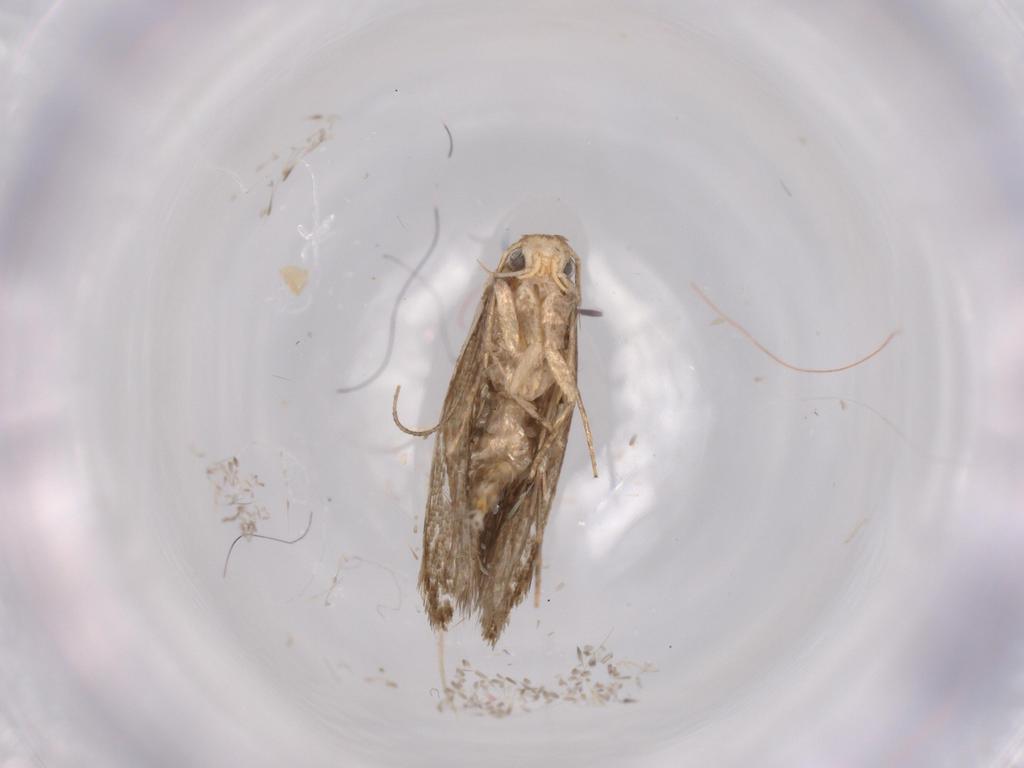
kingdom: Animalia
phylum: Arthropoda
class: Insecta
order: Lepidoptera
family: Tineidae
